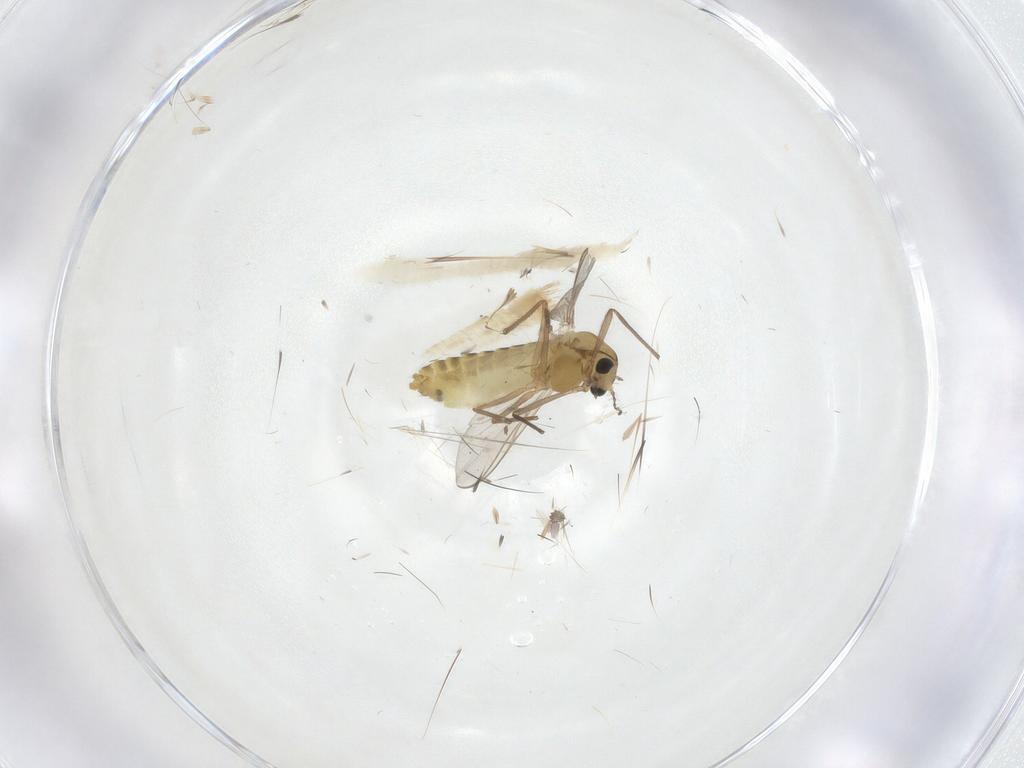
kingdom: Animalia
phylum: Arthropoda
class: Insecta
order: Diptera
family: Chironomidae
